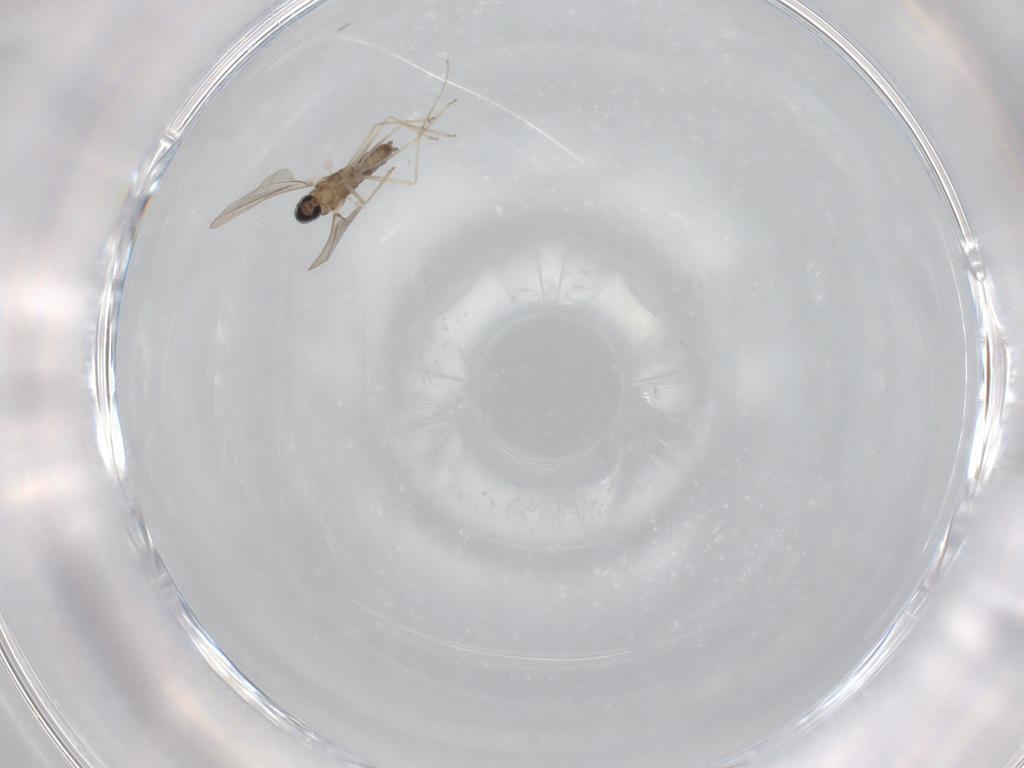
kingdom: Animalia
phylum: Arthropoda
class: Insecta
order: Diptera
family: Cecidomyiidae
